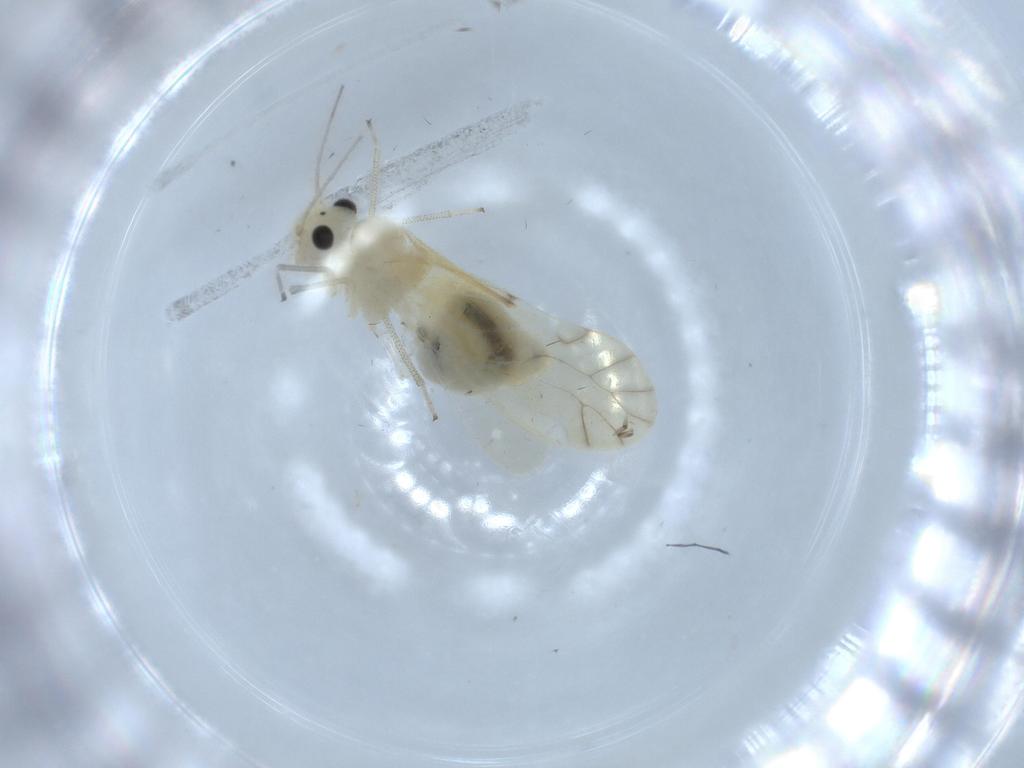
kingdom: Animalia
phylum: Arthropoda
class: Insecta
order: Psocodea
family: Caeciliusidae
